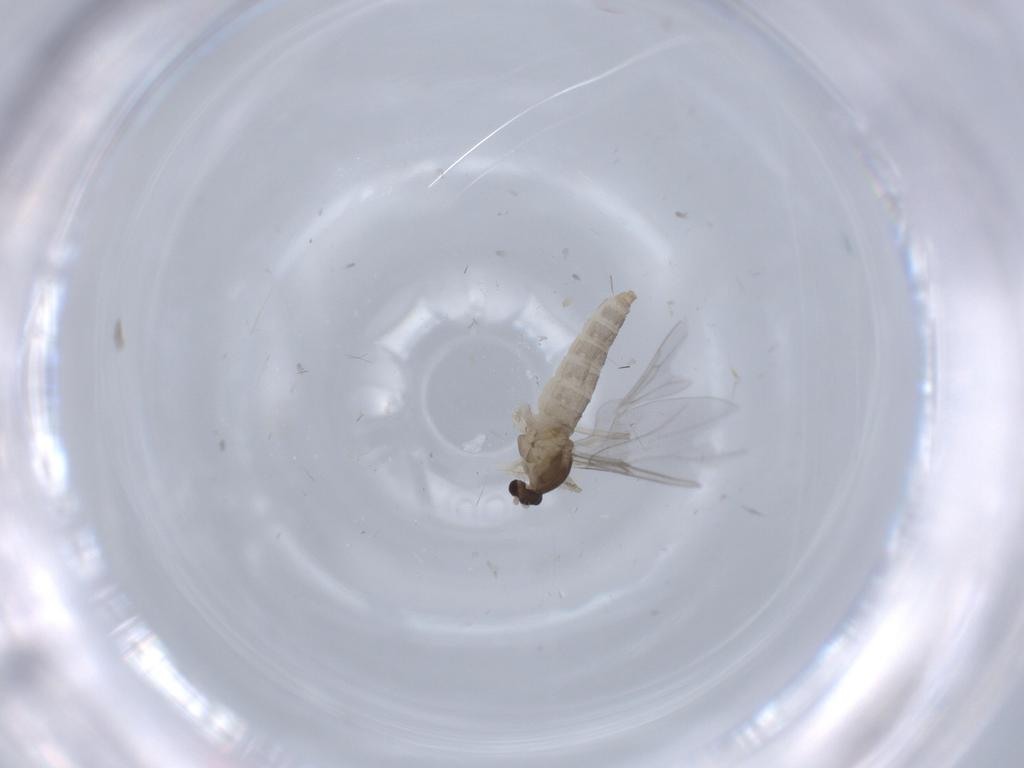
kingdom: Animalia
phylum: Arthropoda
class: Insecta
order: Diptera
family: Cecidomyiidae
